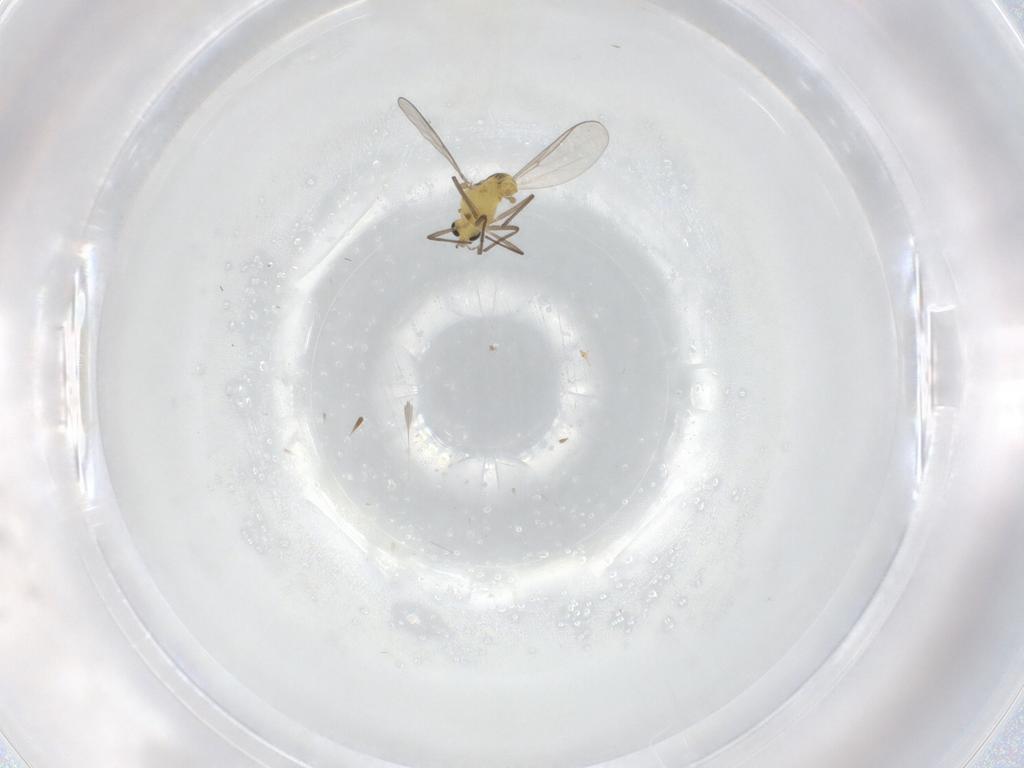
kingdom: Animalia
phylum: Arthropoda
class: Insecta
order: Diptera
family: Chironomidae
